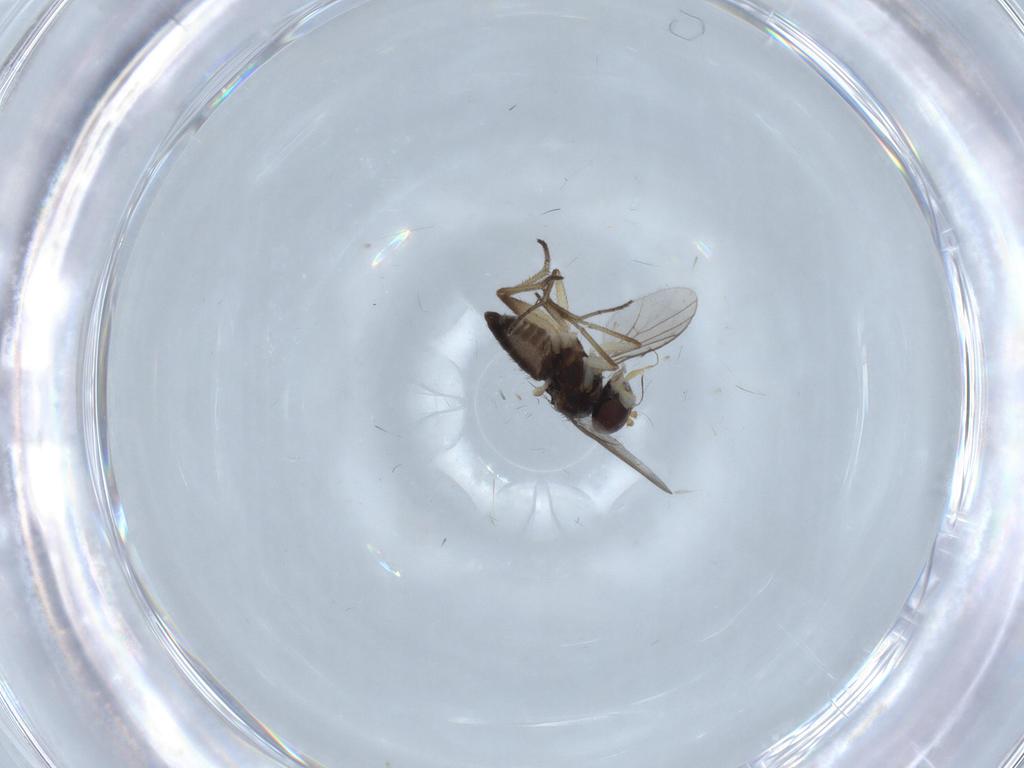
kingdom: Animalia
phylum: Arthropoda
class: Insecta
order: Diptera
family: Dolichopodidae
